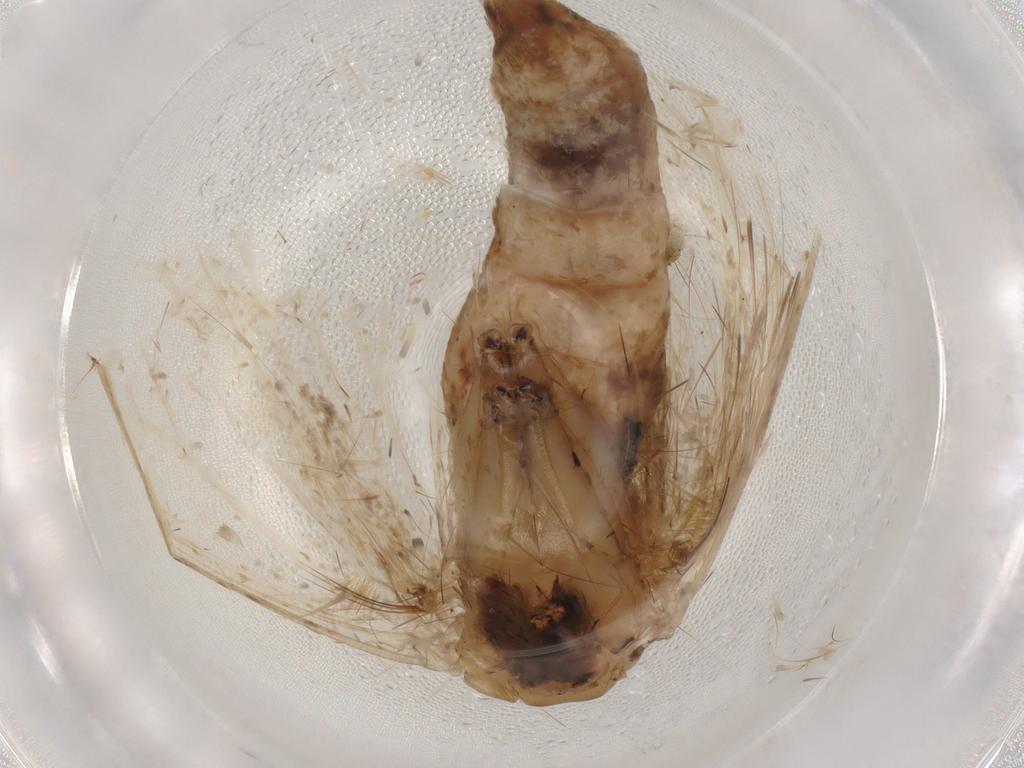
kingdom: Animalia
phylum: Arthropoda
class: Insecta
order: Lepidoptera
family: Erebidae
